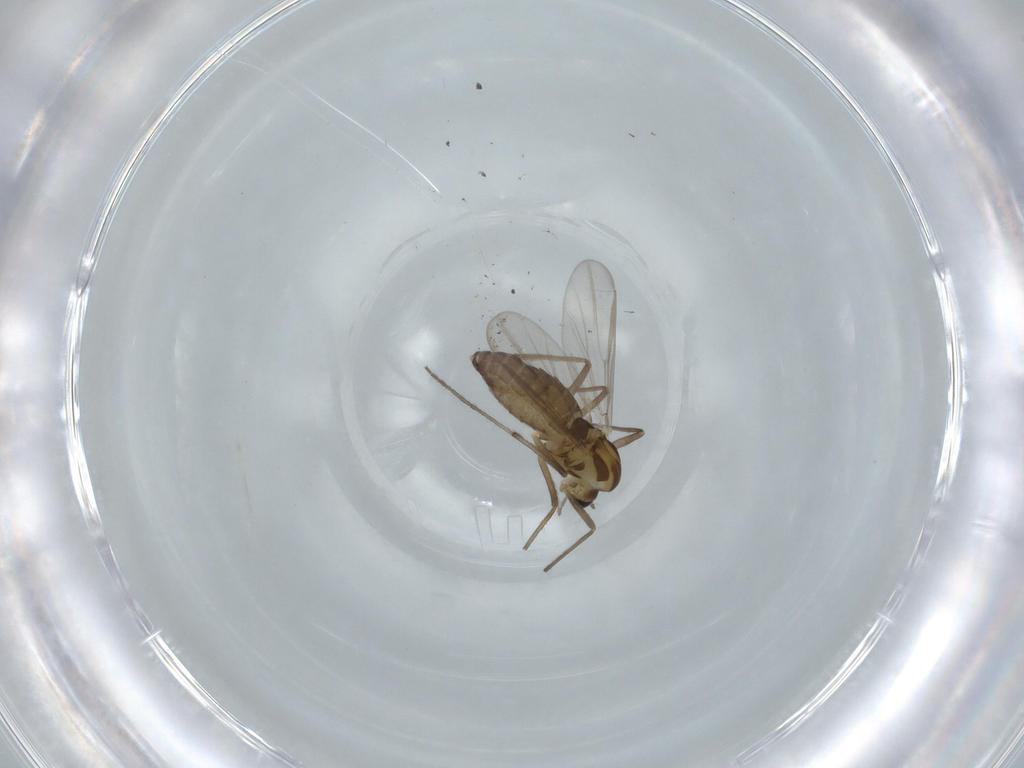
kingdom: Animalia
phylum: Arthropoda
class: Insecta
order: Diptera
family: Chironomidae
